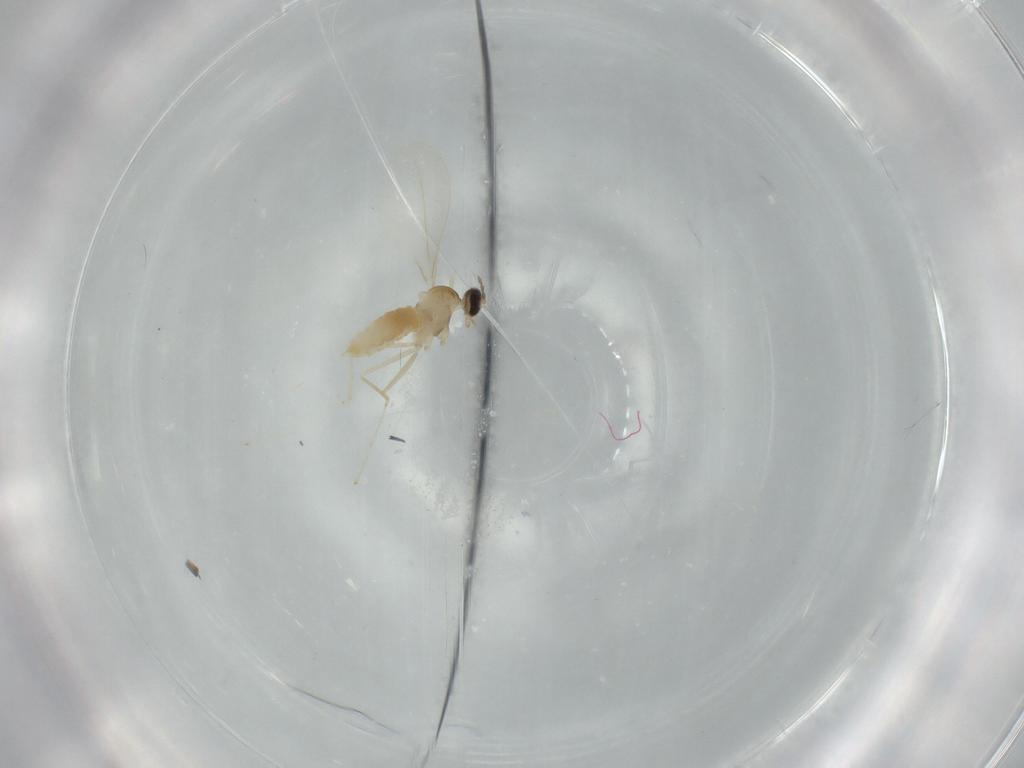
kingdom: Animalia
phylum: Arthropoda
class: Insecta
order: Diptera
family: Cecidomyiidae
